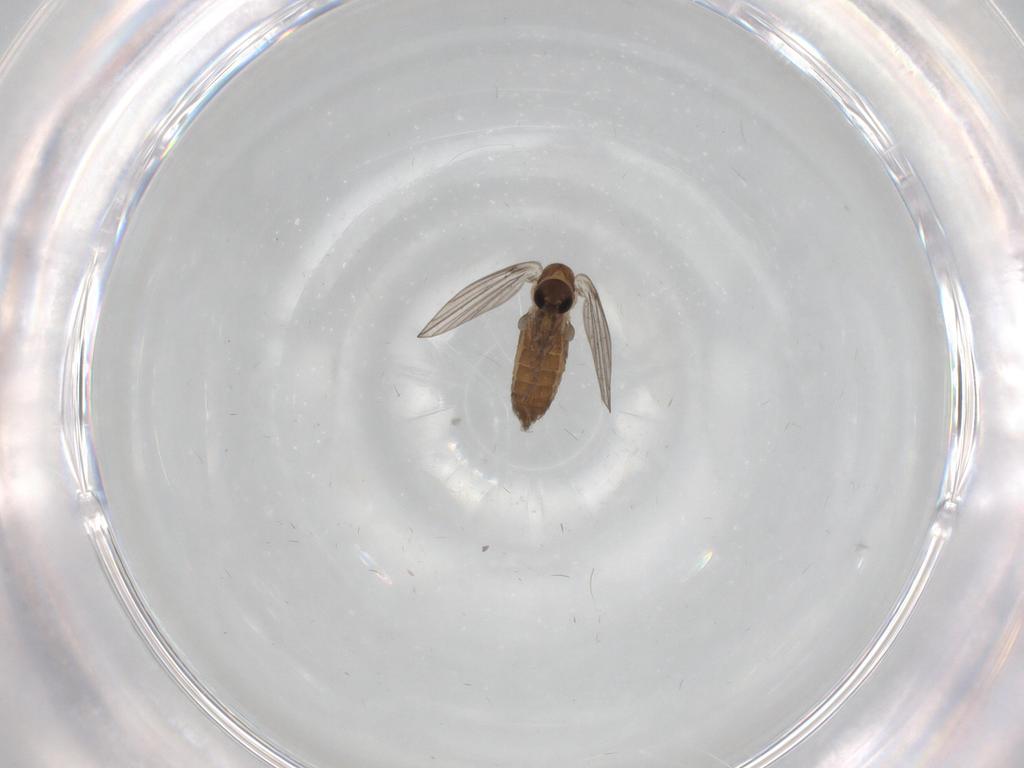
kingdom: Animalia
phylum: Arthropoda
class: Insecta
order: Diptera
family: Psychodidae
